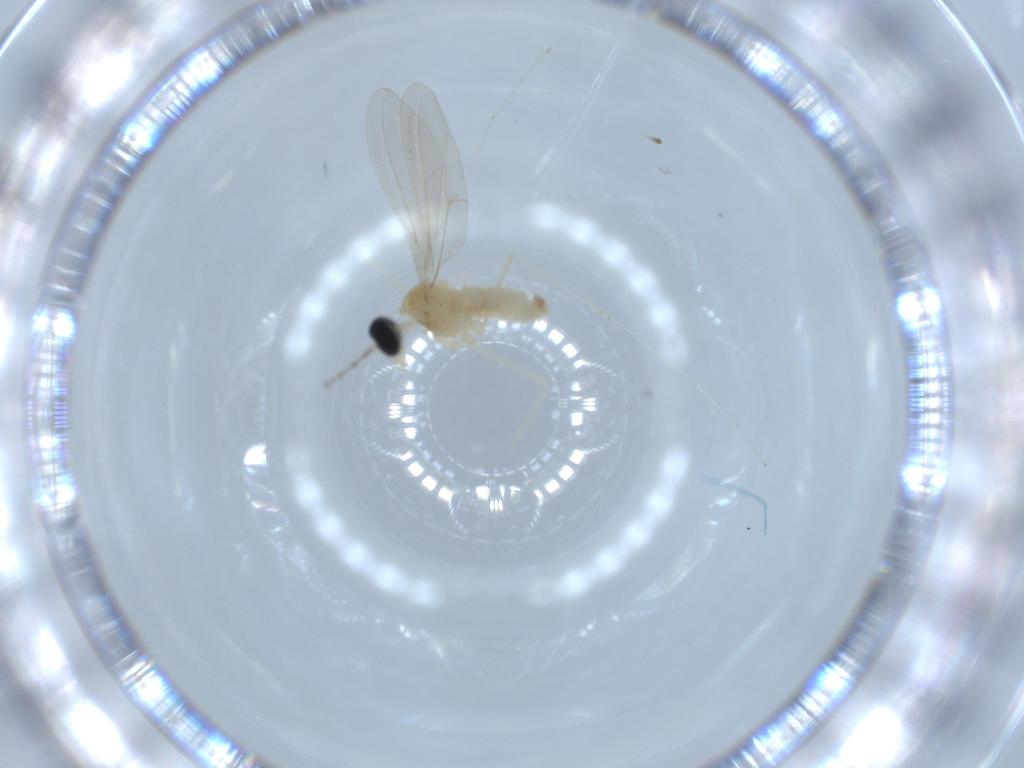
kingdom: Animalia
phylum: Arthropoda
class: Insecta
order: Diptera
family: Cecidomyiidae
